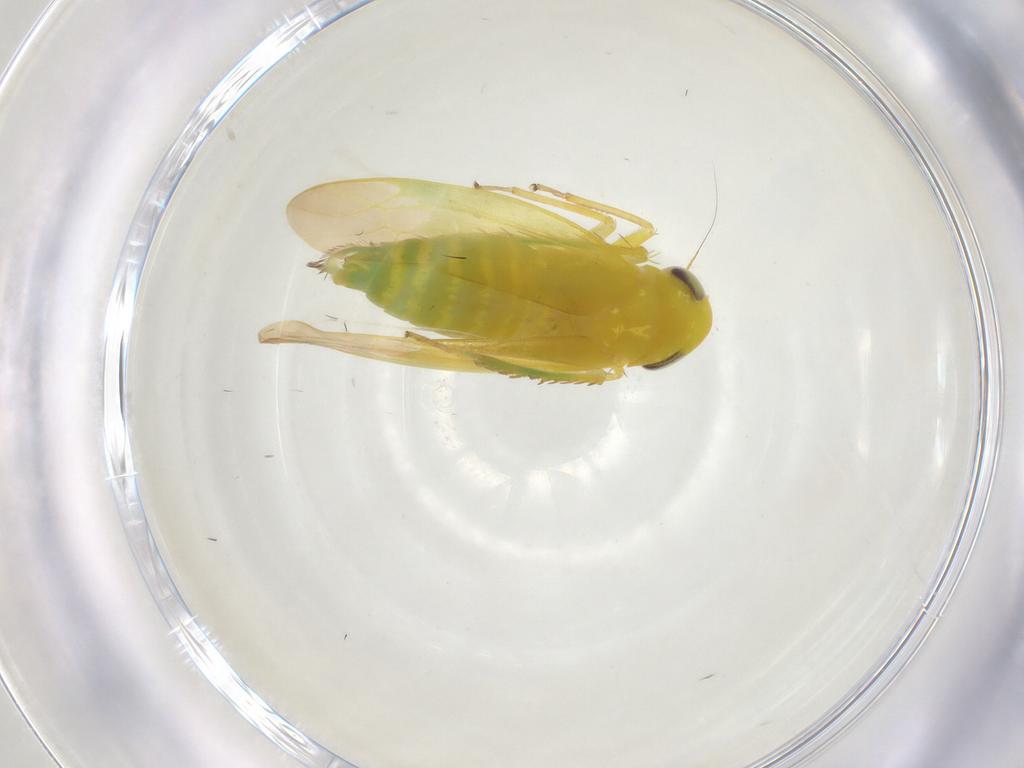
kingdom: Animalia
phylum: Arthropoda
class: Insecta
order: Hemiptera
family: Cicadellidae
